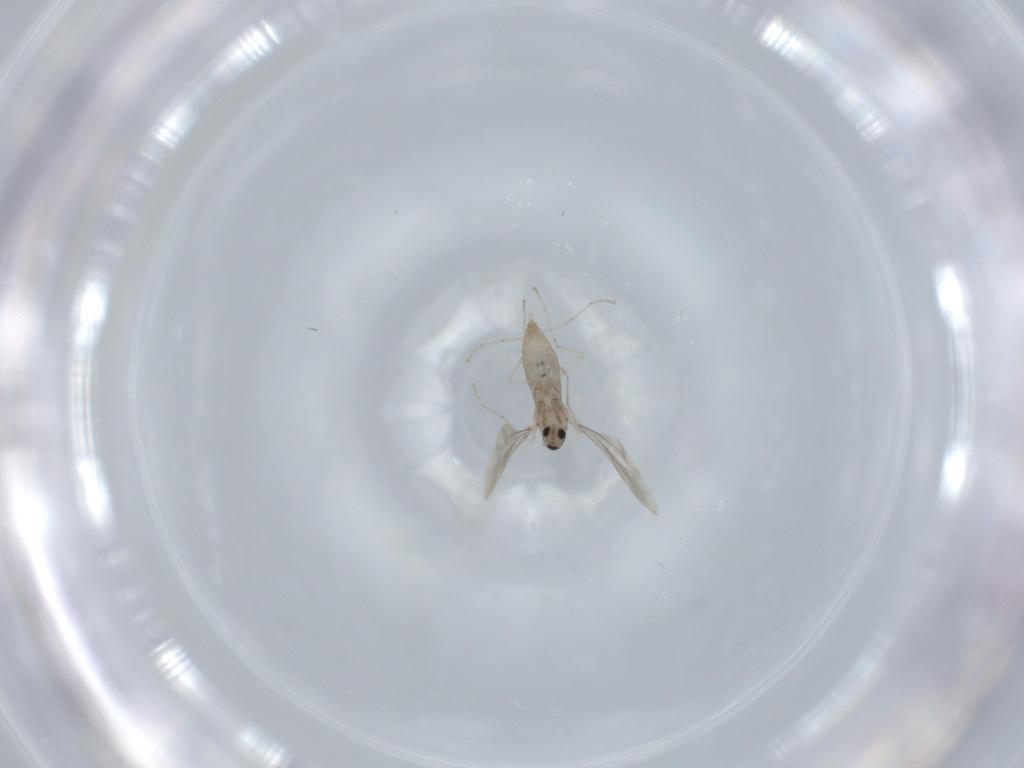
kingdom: Animalia
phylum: Arthropoda
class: Insecta
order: Diptera
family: Cecidomyiidae
